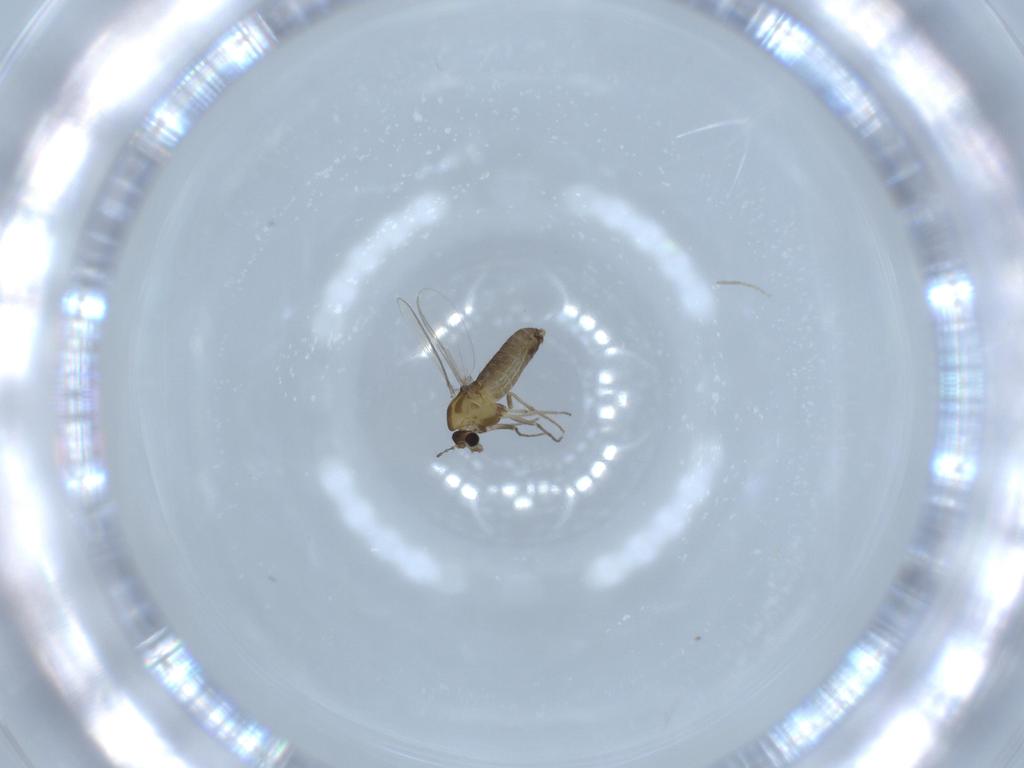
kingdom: Animalia
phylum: Arthropoda
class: Insecta
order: Diptera
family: Chironomidae
